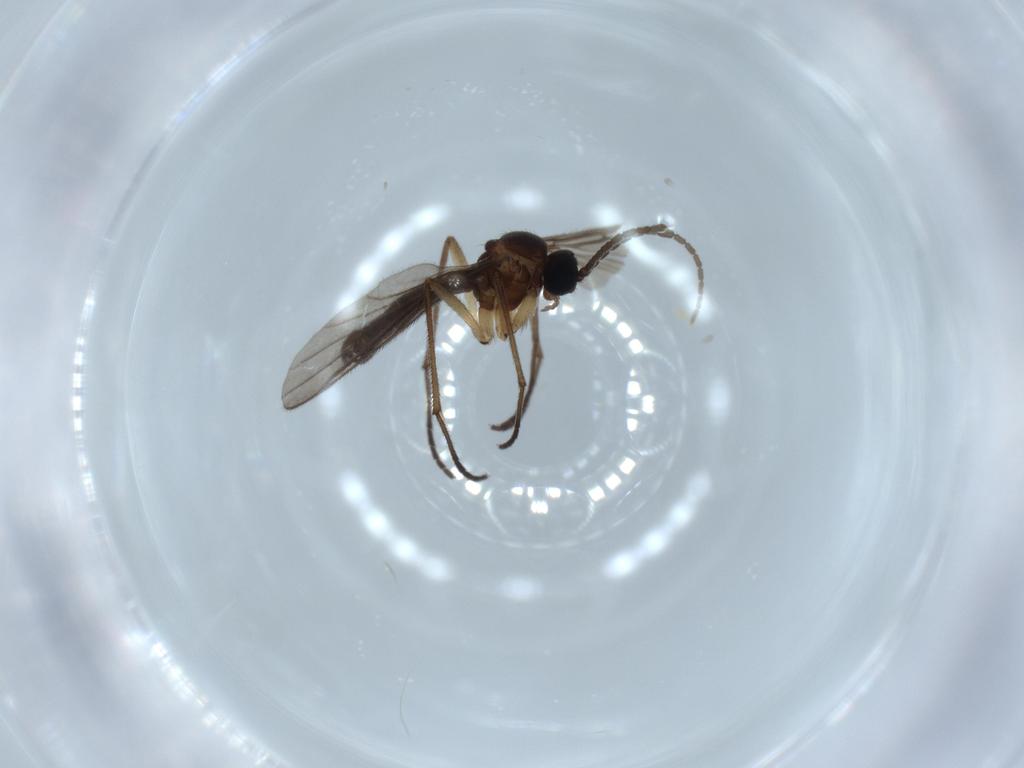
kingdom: Animalia
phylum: Arthropoda
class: Insecta
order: Diptera
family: Sciaridae
